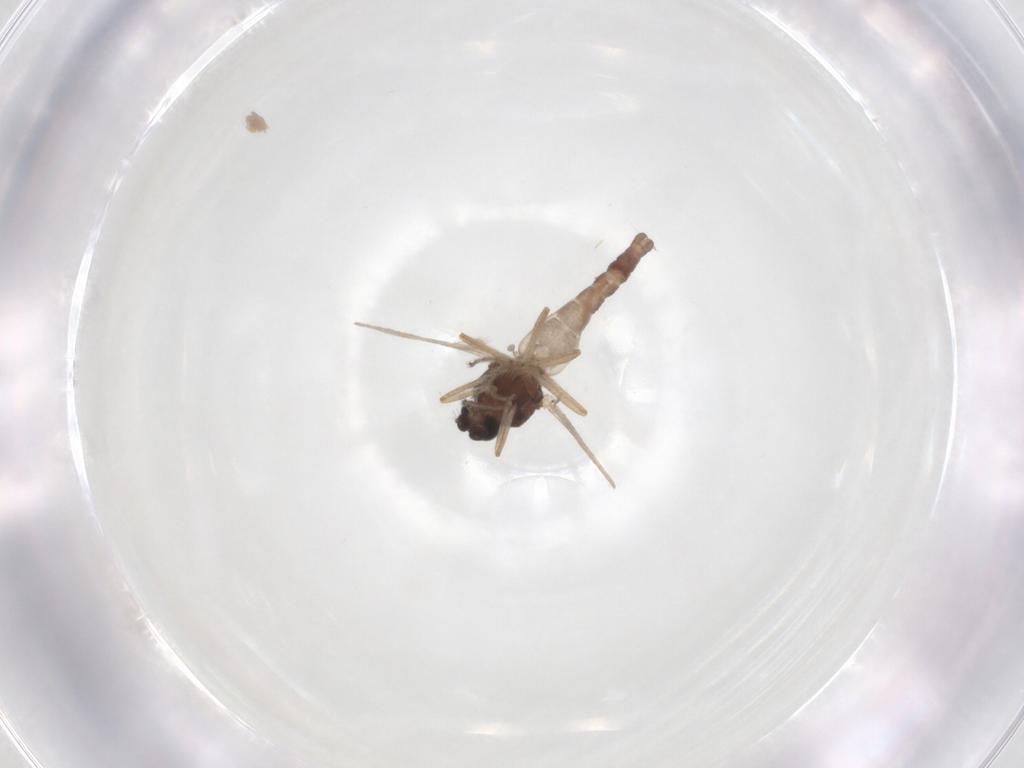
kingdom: Animalia
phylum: Arthropoda
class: Insecta
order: Diptera
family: Ceratopogonidae
